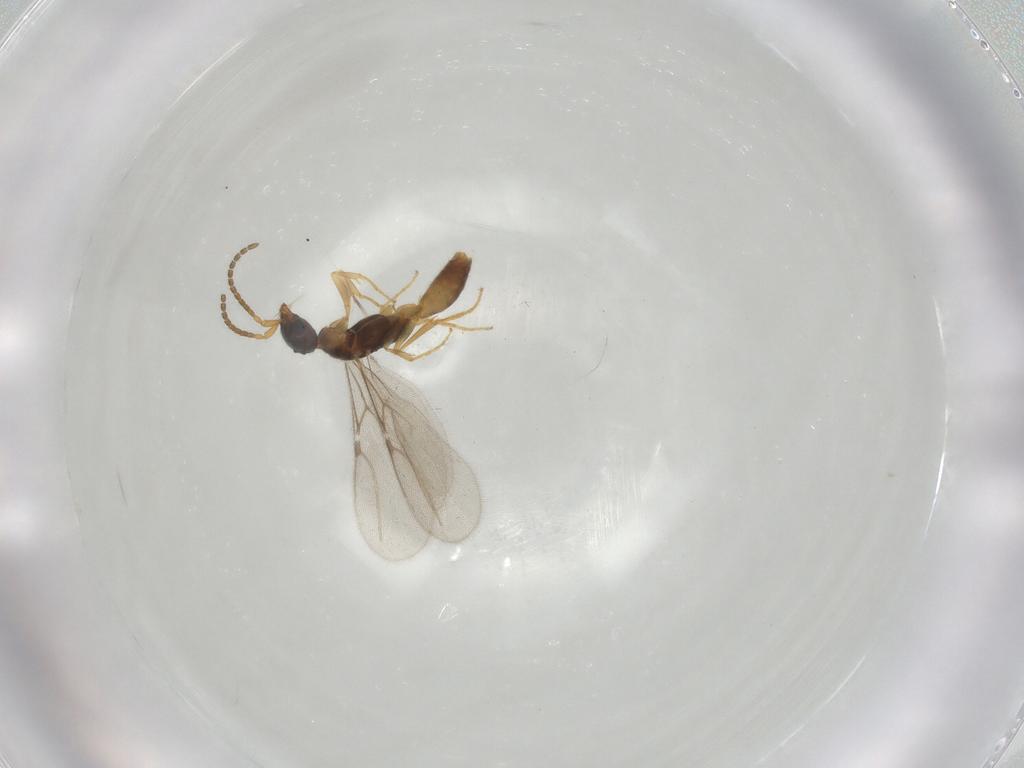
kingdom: Animalia
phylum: Arthropoda
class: Insecta
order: Hymenoptera
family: Bethylidae
